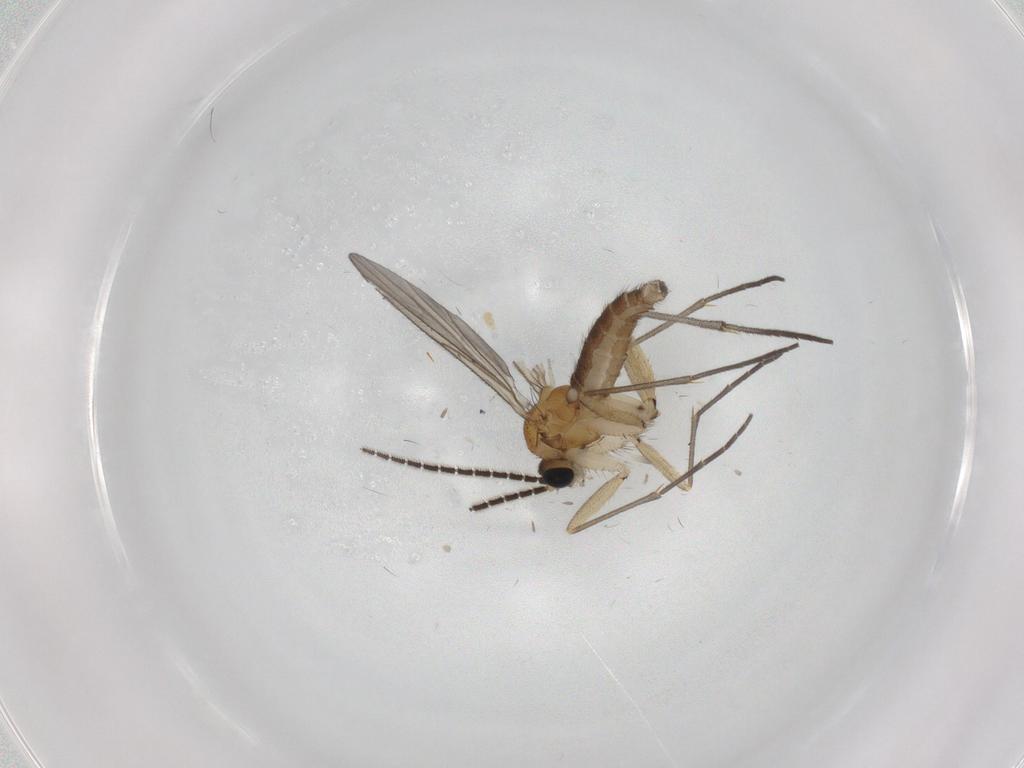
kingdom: Animalia
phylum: Arthropoda
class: Insecta
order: Diptera
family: Sciaridae
